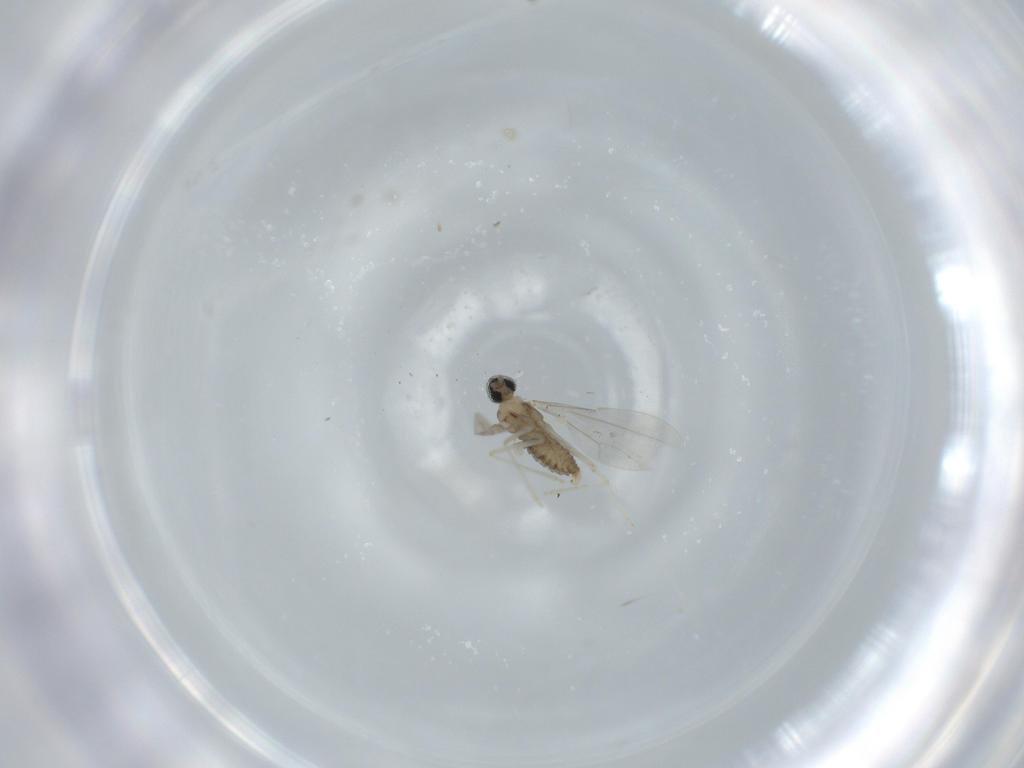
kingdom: Animalia
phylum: Arthropoda
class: Insecta
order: Diptera
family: Cecidomyiidae
